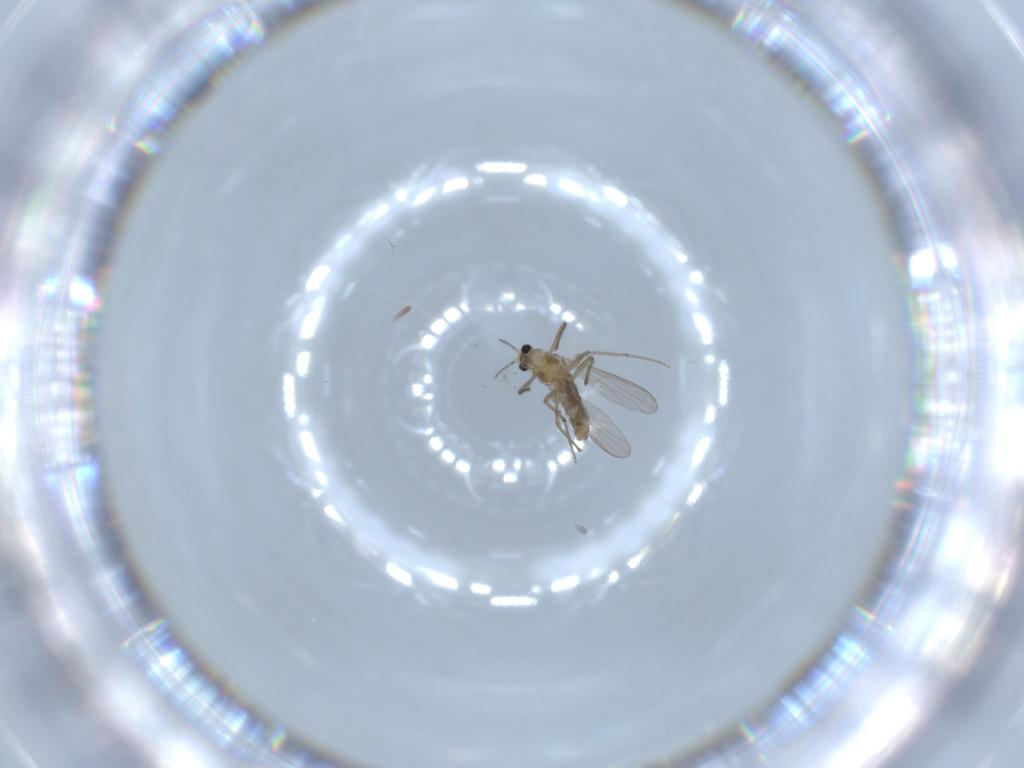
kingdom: Animalia
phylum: Arthropoda
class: Insecta
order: Diptera
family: Chironomidae
